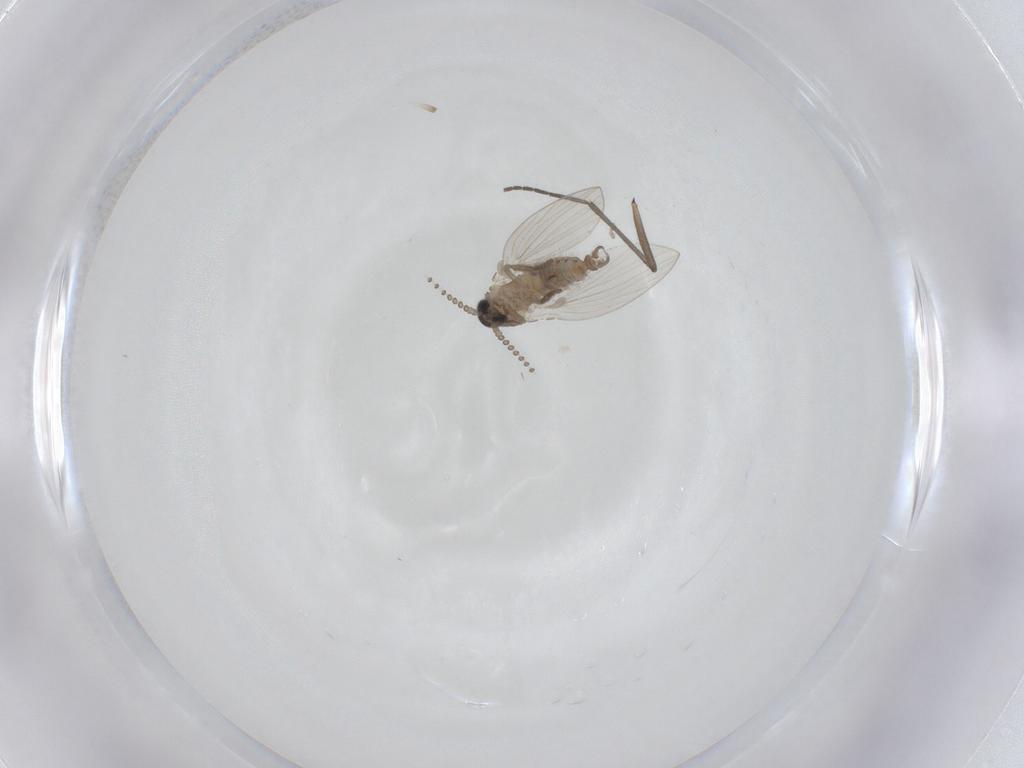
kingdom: Animalia
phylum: Arthropoda
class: Insecta
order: Diptera
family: Psychodidae
